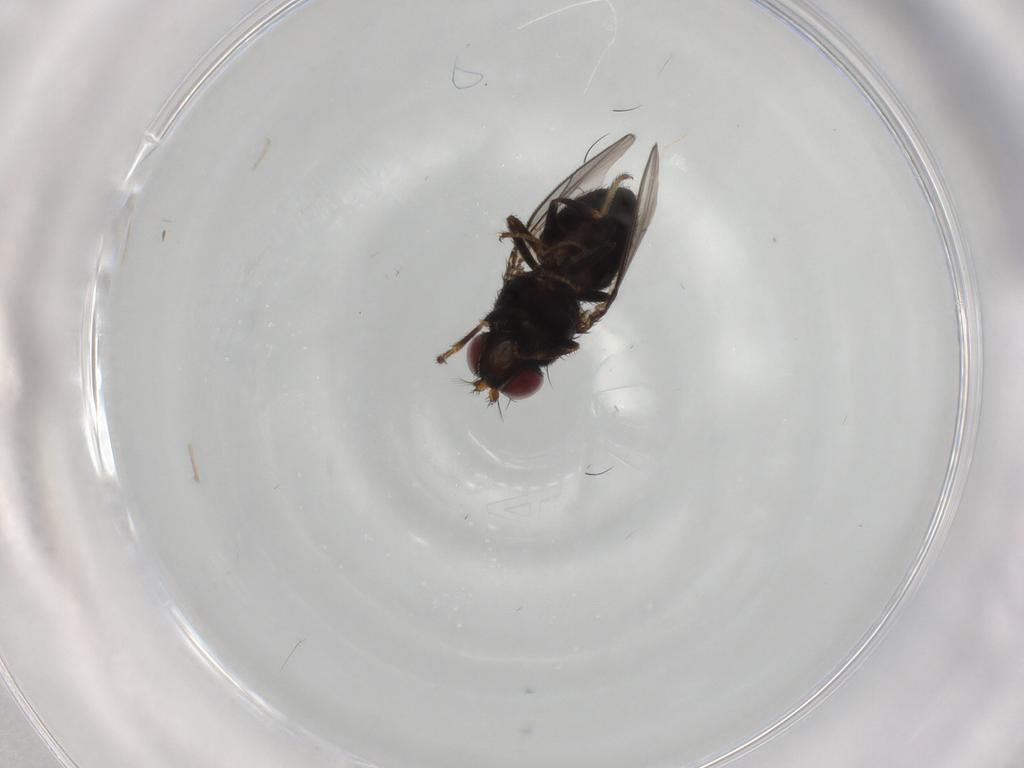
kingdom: Animalia
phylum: Arthropoda
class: Insecta
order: Diptera
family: Ephydridae
